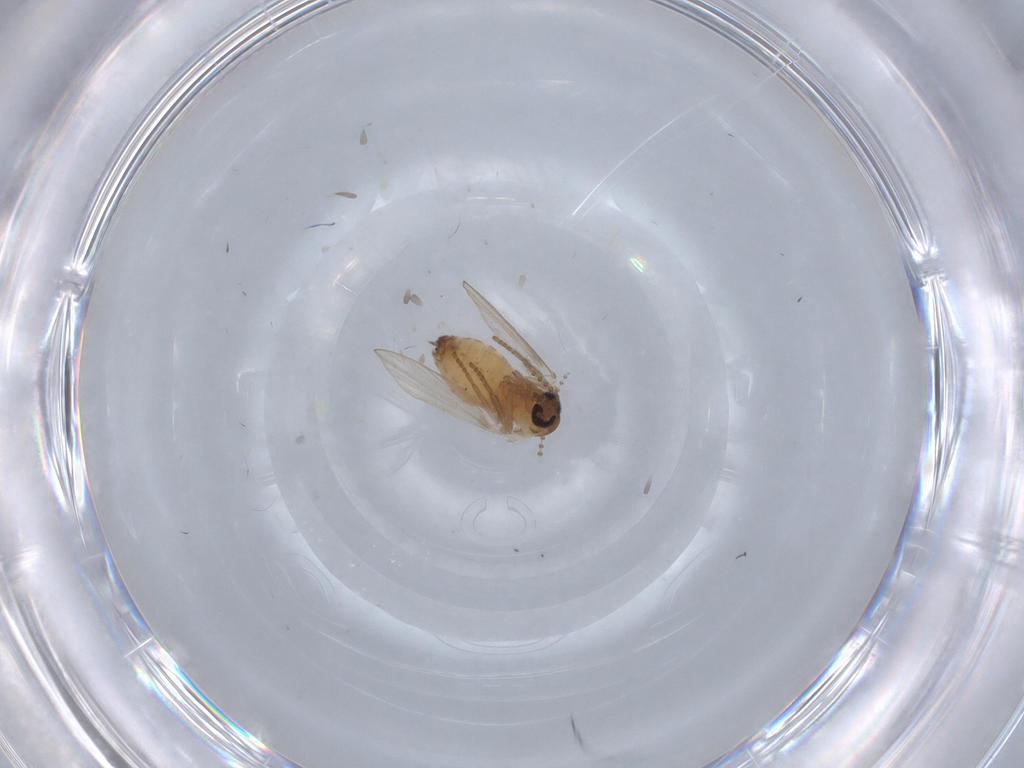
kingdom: Animalia
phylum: Arthropoda
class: Insecta
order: Diptera
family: Psychodidae
